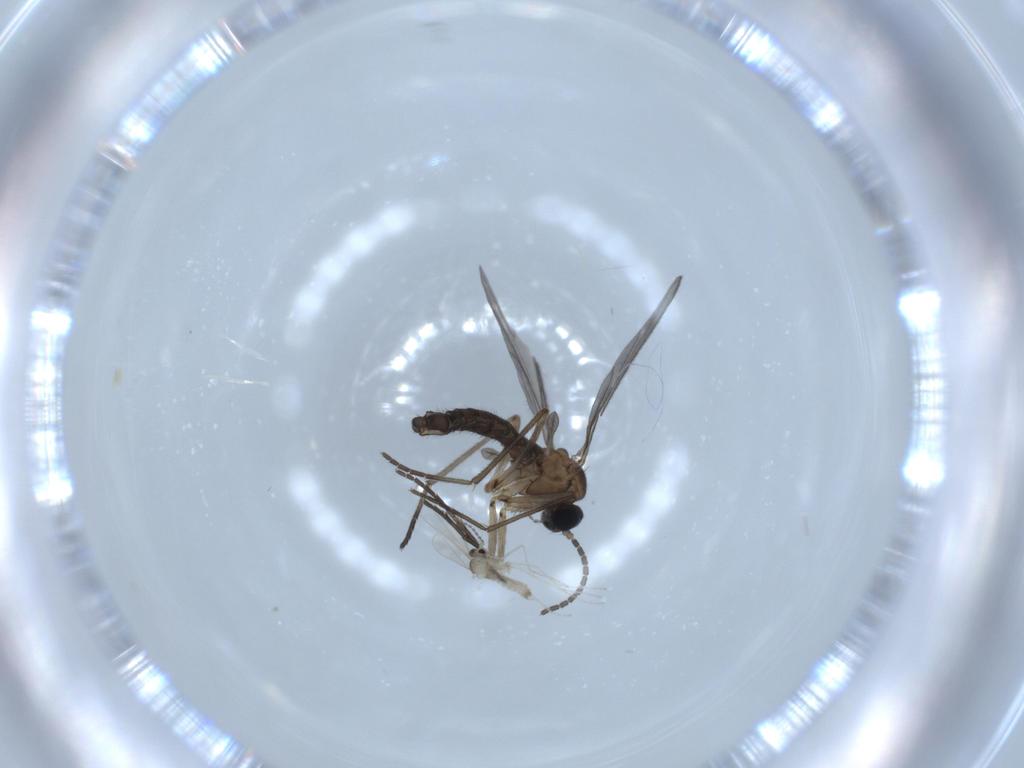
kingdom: Animalia
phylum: Arthropoda
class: Insecta
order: Diptera
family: Cecidomyiidae
